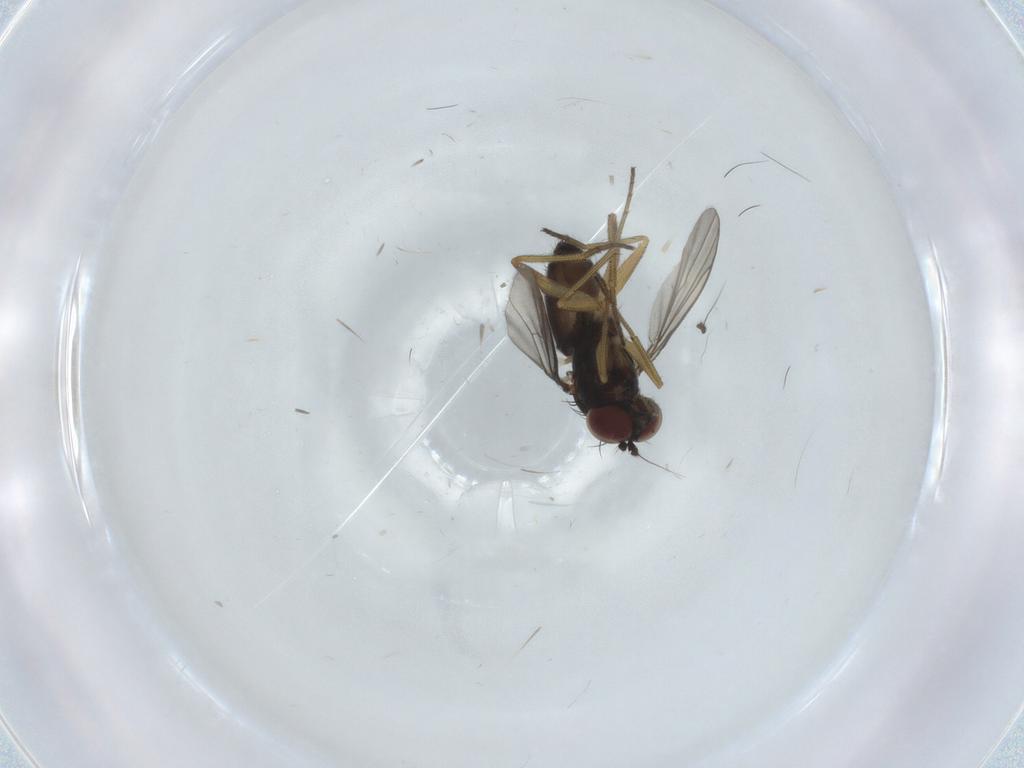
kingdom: Animalia
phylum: Arthropoda
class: Insecta
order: Diptera
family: Dolichopodidae
